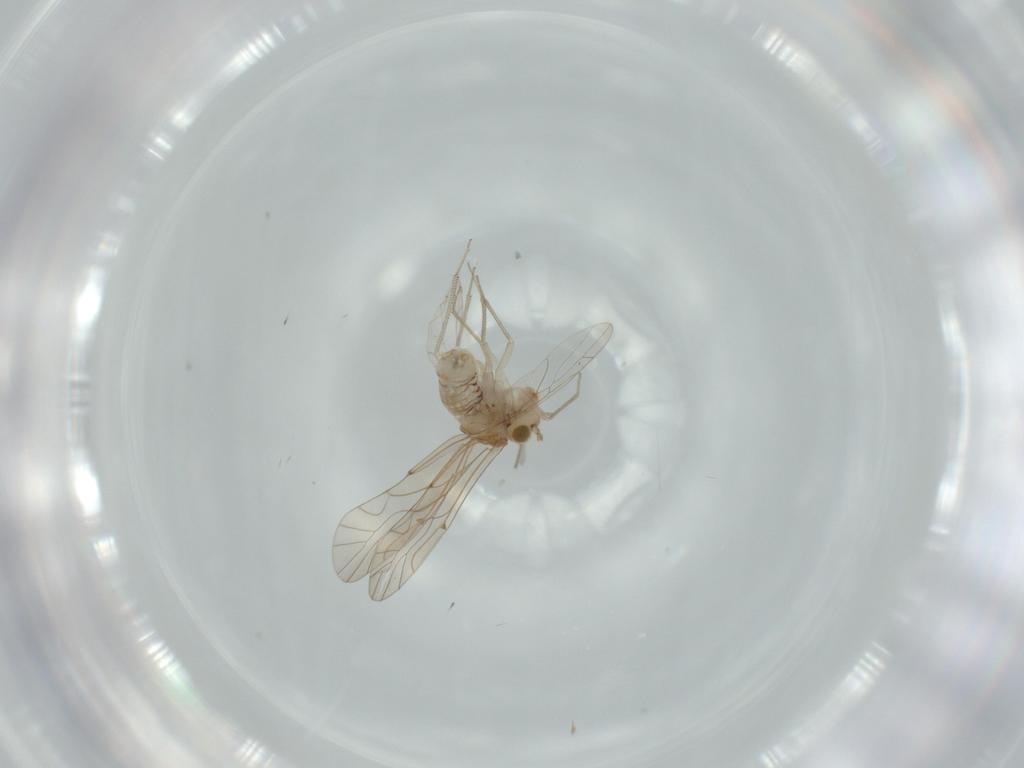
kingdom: Animalia
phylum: Arthropoda
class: Insecta
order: Psocodea
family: Lachesillidae
